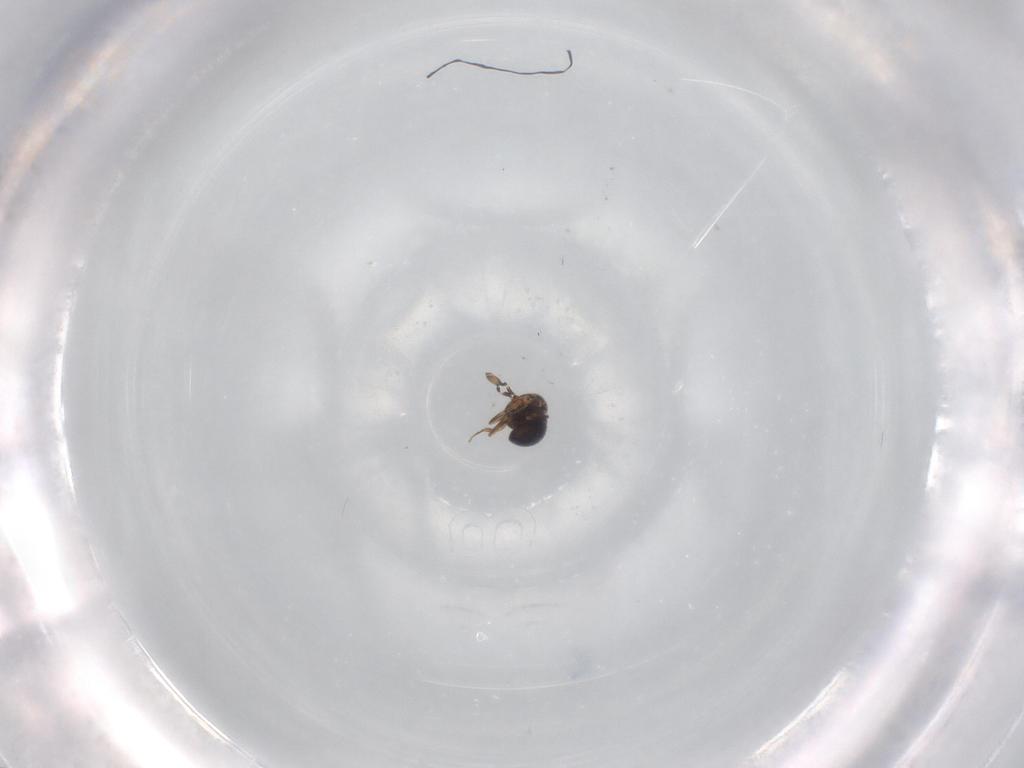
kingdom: Animalia
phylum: Arthropoda
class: Insecta
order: Hymenoptera
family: Scelionidae
